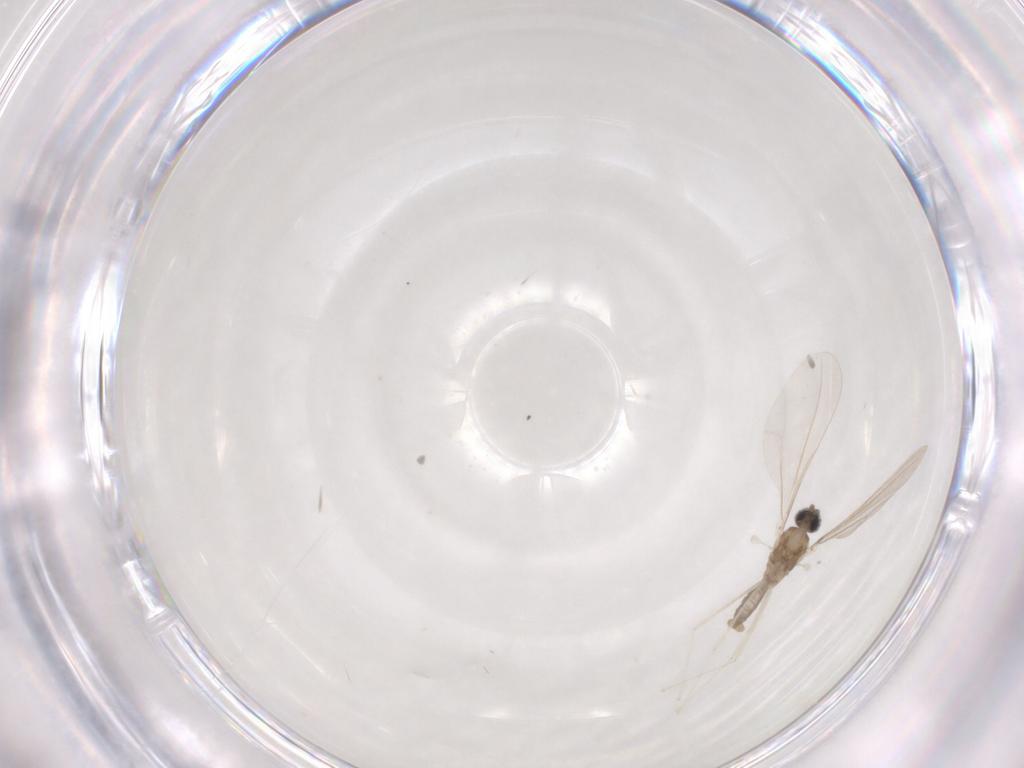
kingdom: Animalia
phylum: Arthropoda
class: Insecta
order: Diptera
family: Cecidomyiidae
